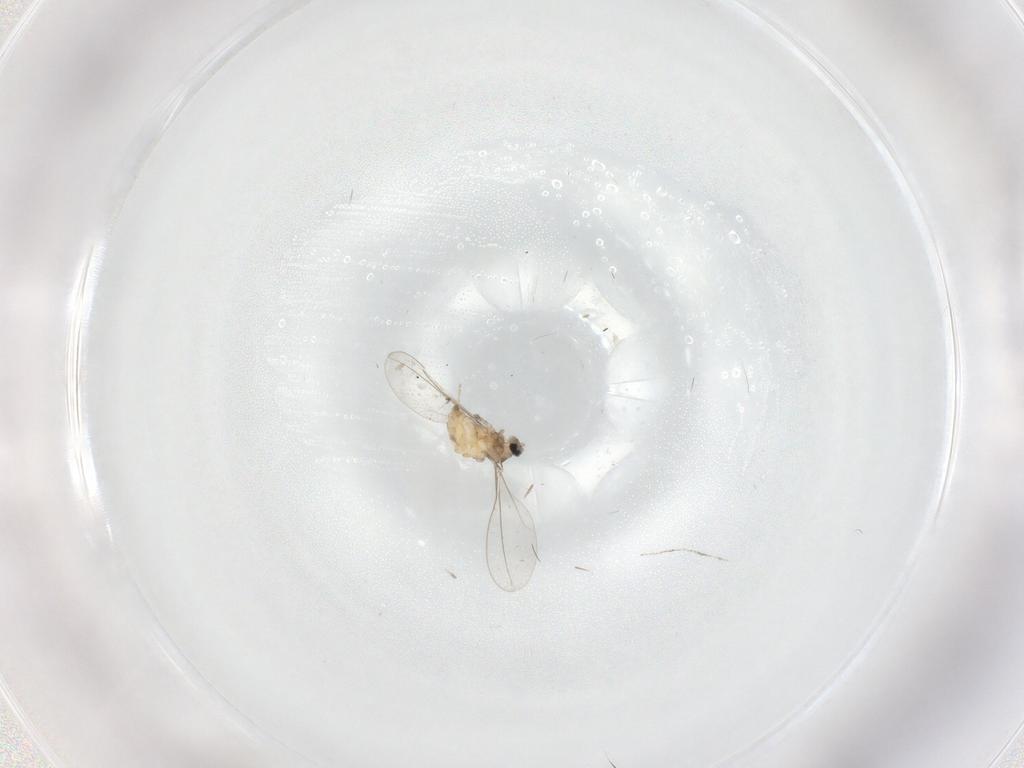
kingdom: Animalia
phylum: Arthropoda
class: Insecta
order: Diptera
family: Cecidomyiidae
